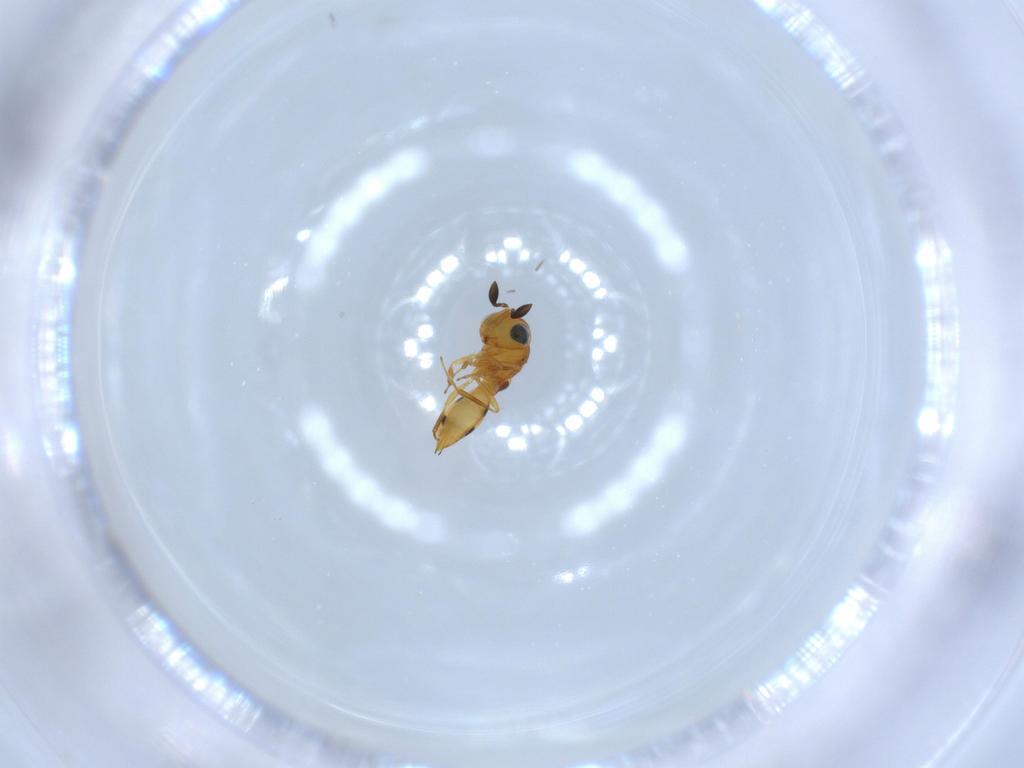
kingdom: Animalia
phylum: Arthropoda
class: Insecta
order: Hymenoptera
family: Scelionidae
